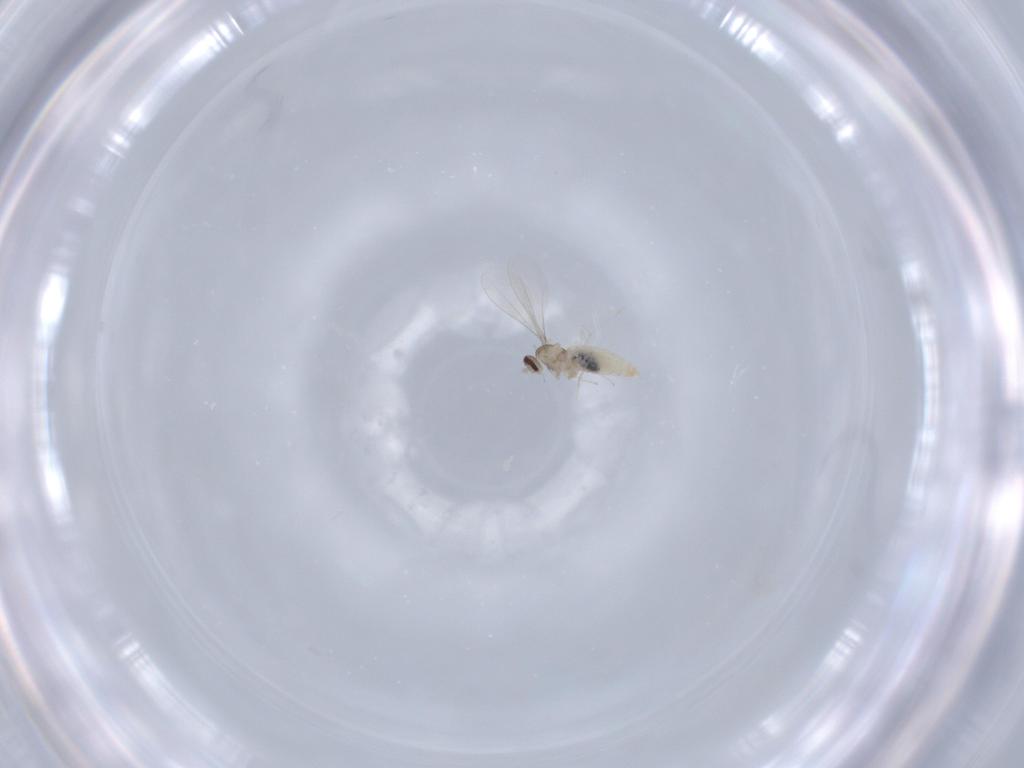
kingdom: Animalia
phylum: Arthropoda
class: Insecta
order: Diptera
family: Cecidomyiidae
